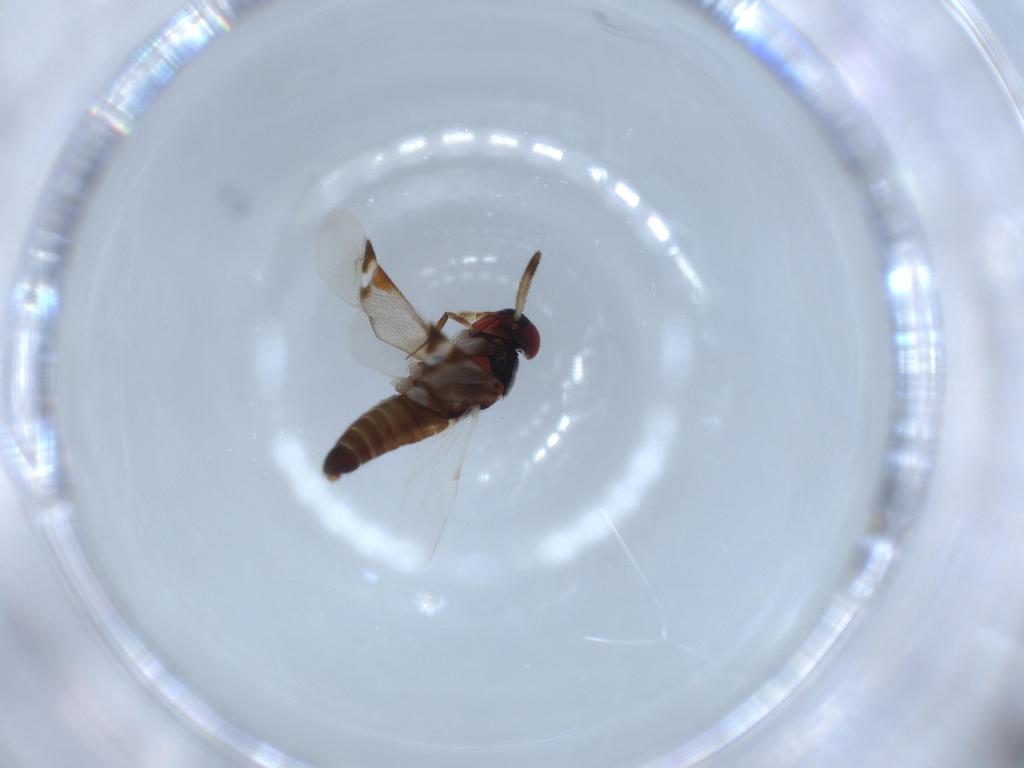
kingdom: Animalia
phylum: Arthropoda
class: Insecta
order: Hemiptera
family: Miridae
